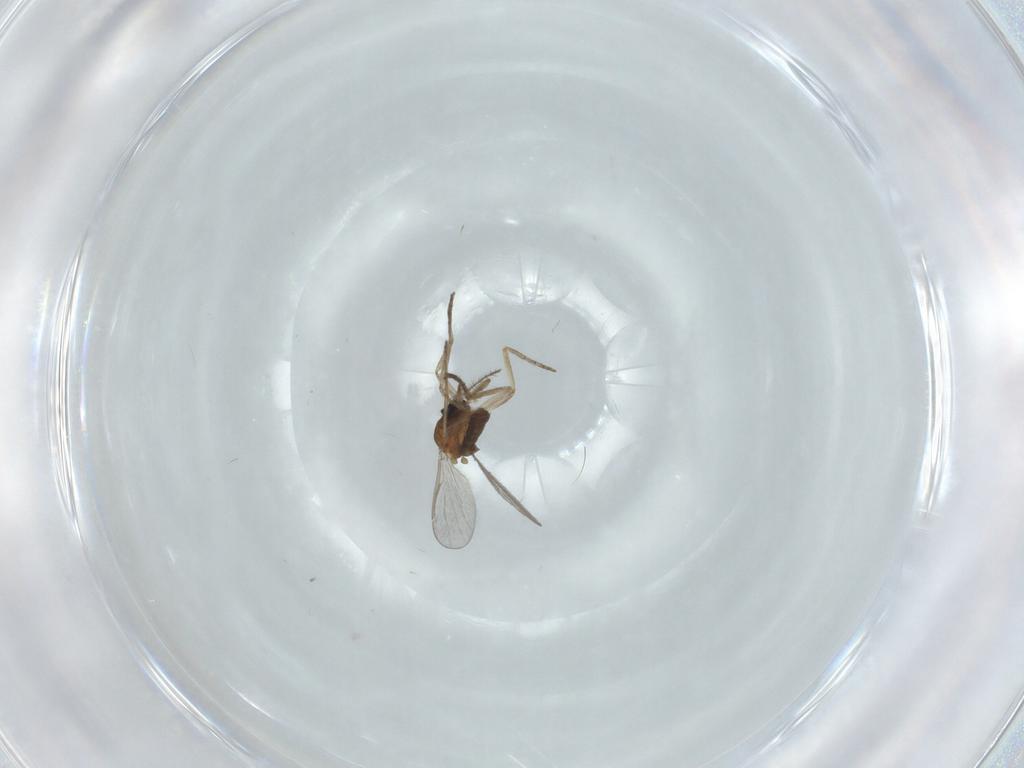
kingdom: Animalia
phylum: Arthropoda
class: Insecta
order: Diptera
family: Cecidomyiidae
